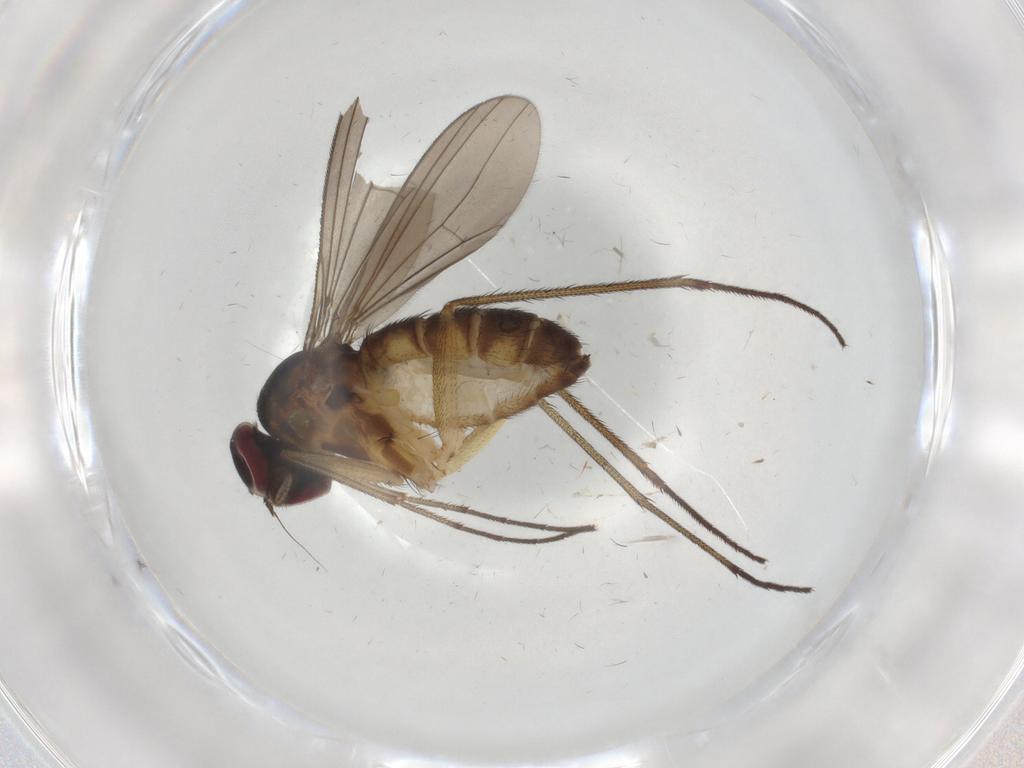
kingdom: Animalia
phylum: Arthropoda
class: Insecta
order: Diptera
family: Dolichopodidae
